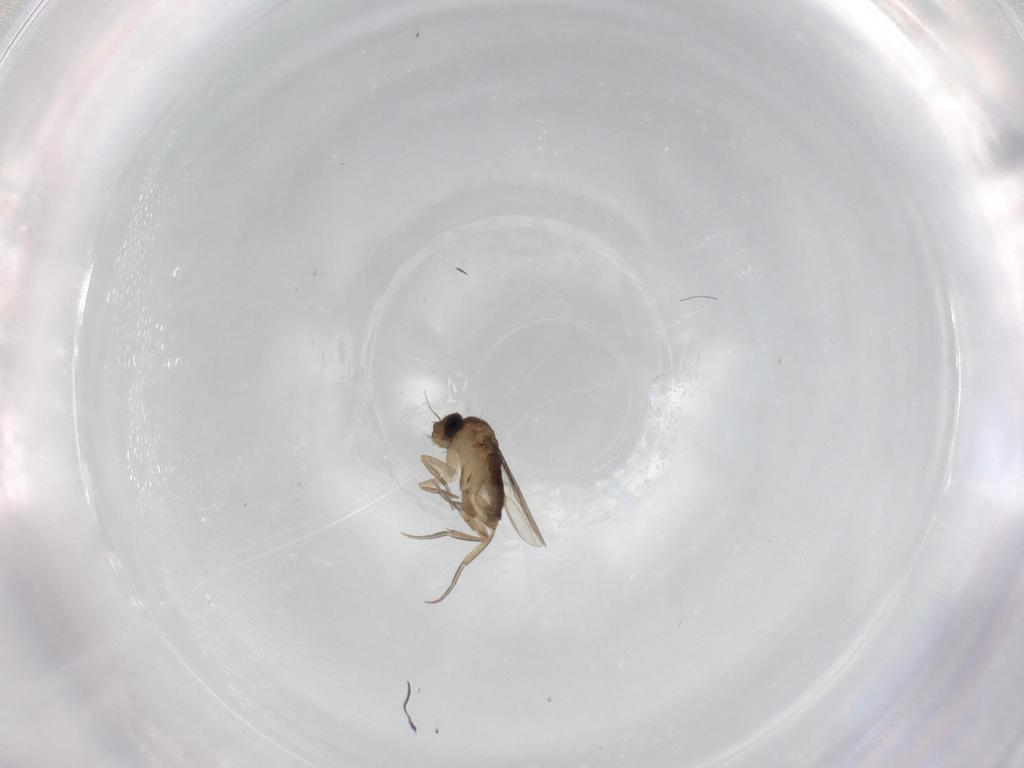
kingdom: Animalia
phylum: Arthropoda
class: Insecta
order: Diptera
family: Phoridae
